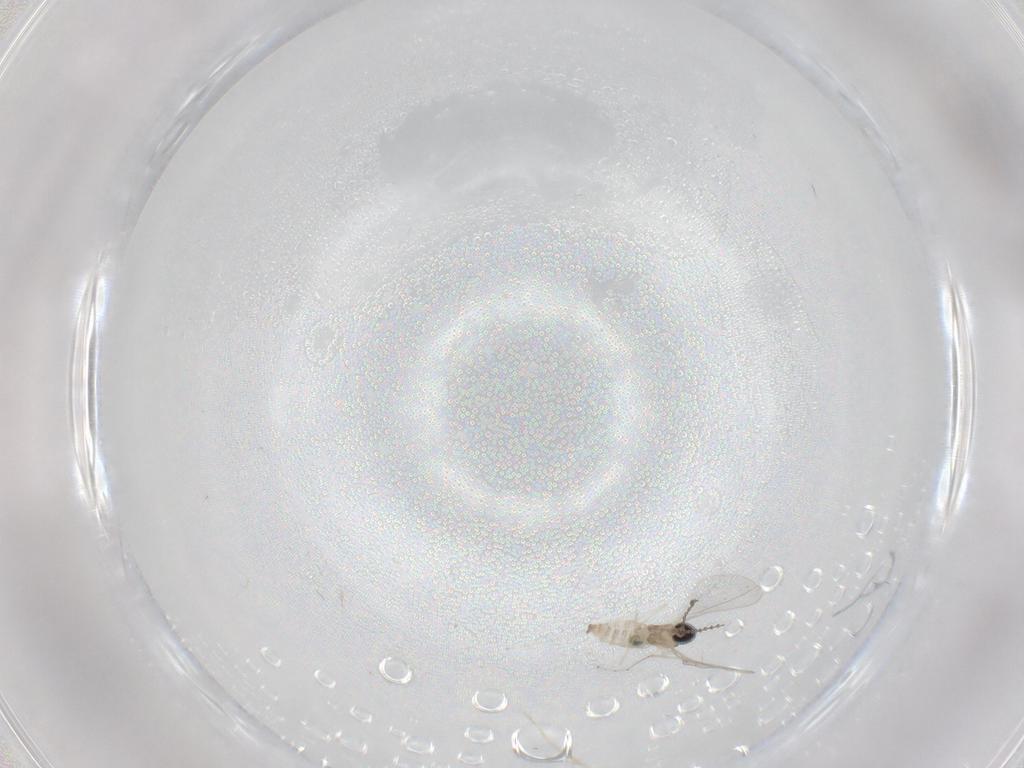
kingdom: Animalia
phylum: Arthropoda
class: Insecta
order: Diptera
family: Cecidomyiidae
